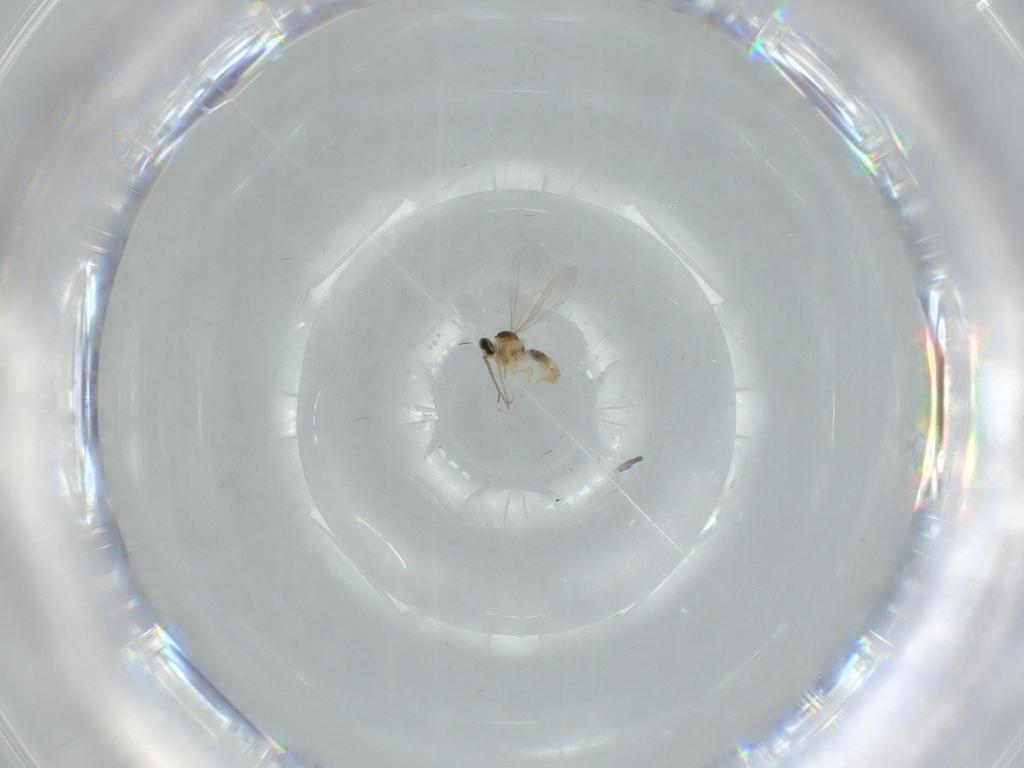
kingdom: Animalia
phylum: Arthropoda
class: Insecta
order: Diptera
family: Cecidomyiidae
